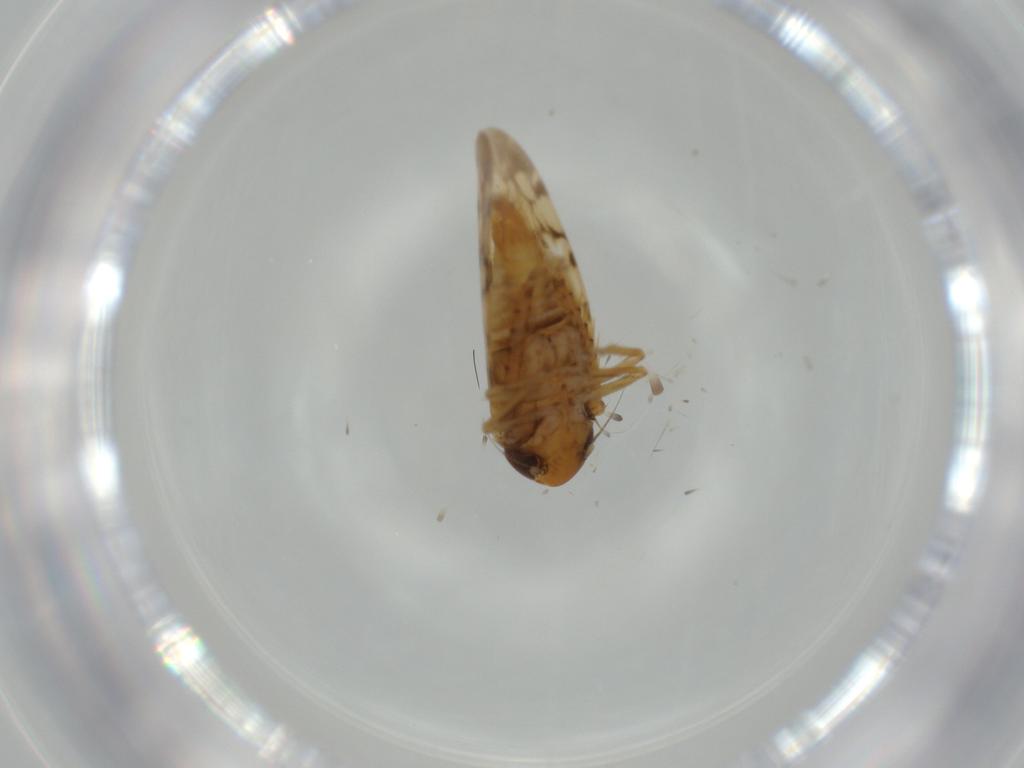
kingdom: Animalia
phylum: Arthropoda
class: Insecta
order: Hemiptera
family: Cicadellidae
